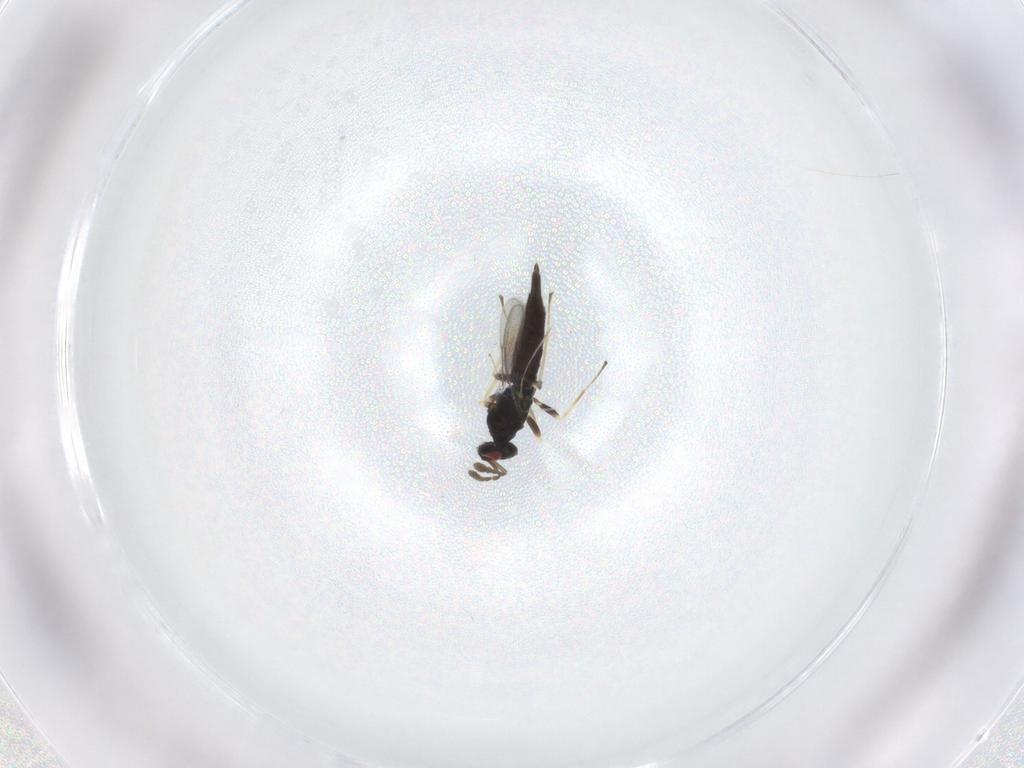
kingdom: Animalia
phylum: Arthropoda
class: Insecta
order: Hymenoptera
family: Eulophidae
